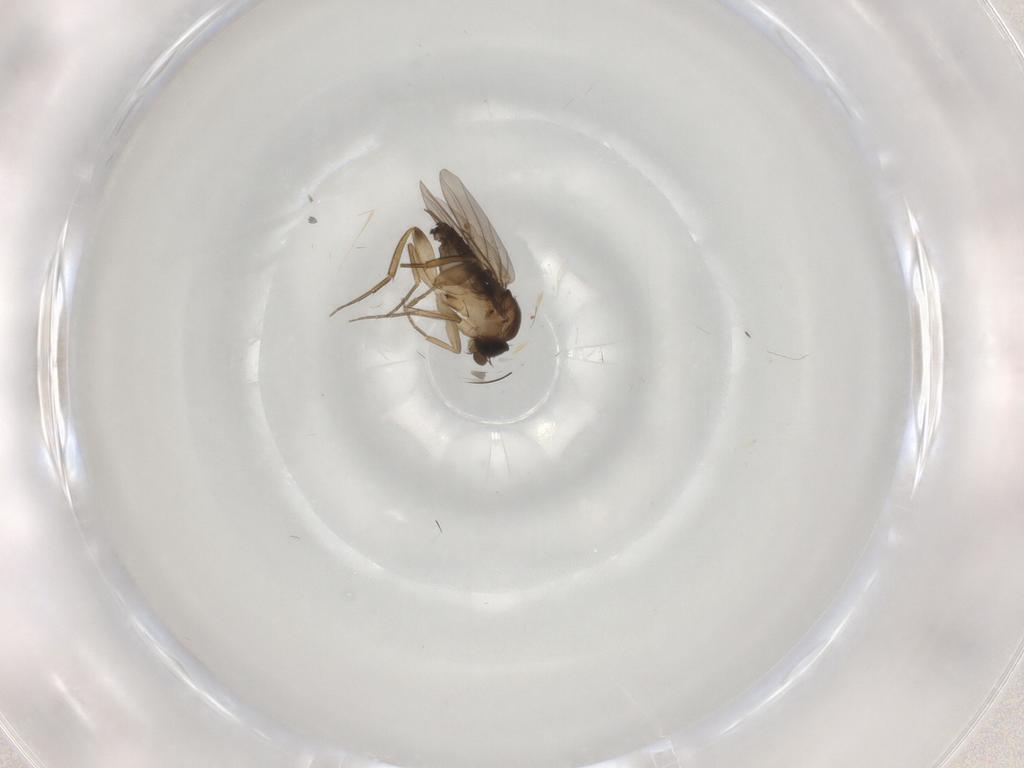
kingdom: Animalia
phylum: Arthropoda
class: Insecta
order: Diptera
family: Phoridae
